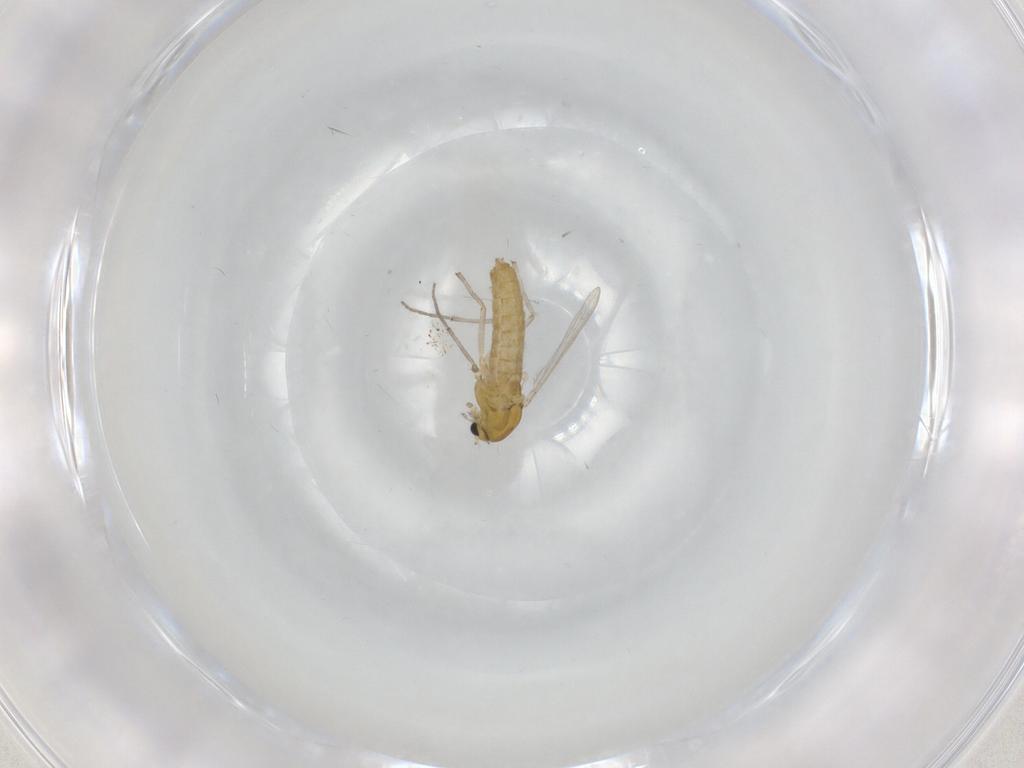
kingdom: Animalia
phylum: Arthropoda
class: Insecta
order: Diptera
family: Chironomidae
